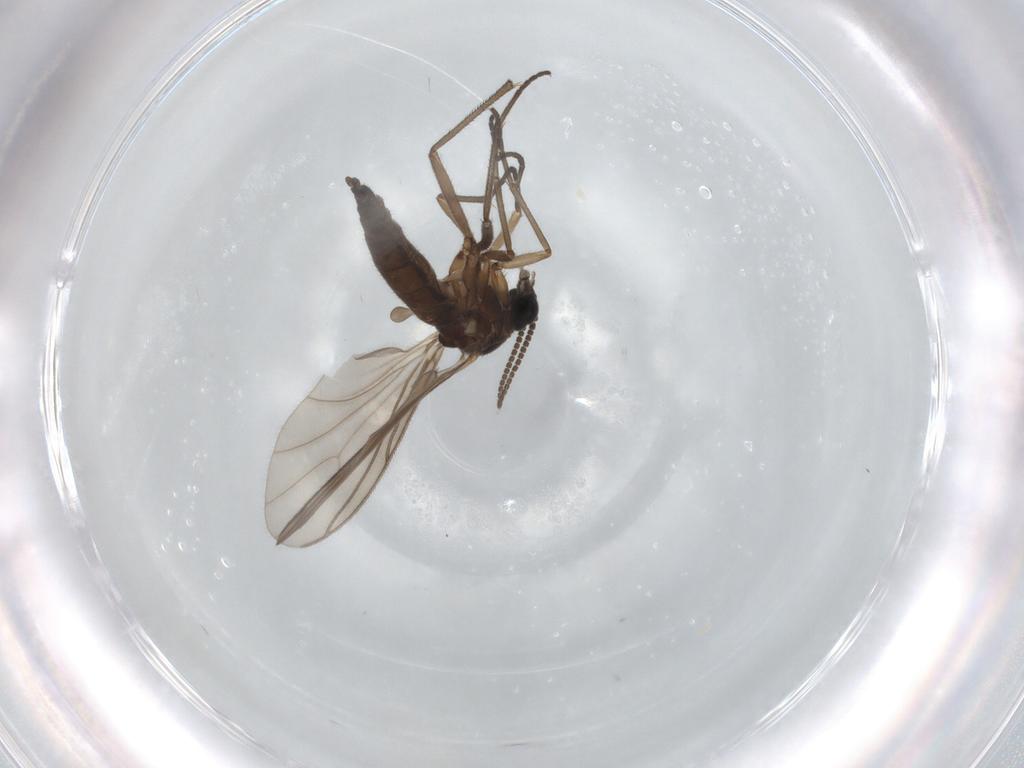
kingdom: Animalia
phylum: Arthropoda
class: Insecta
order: Diptera
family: Sciaridae
